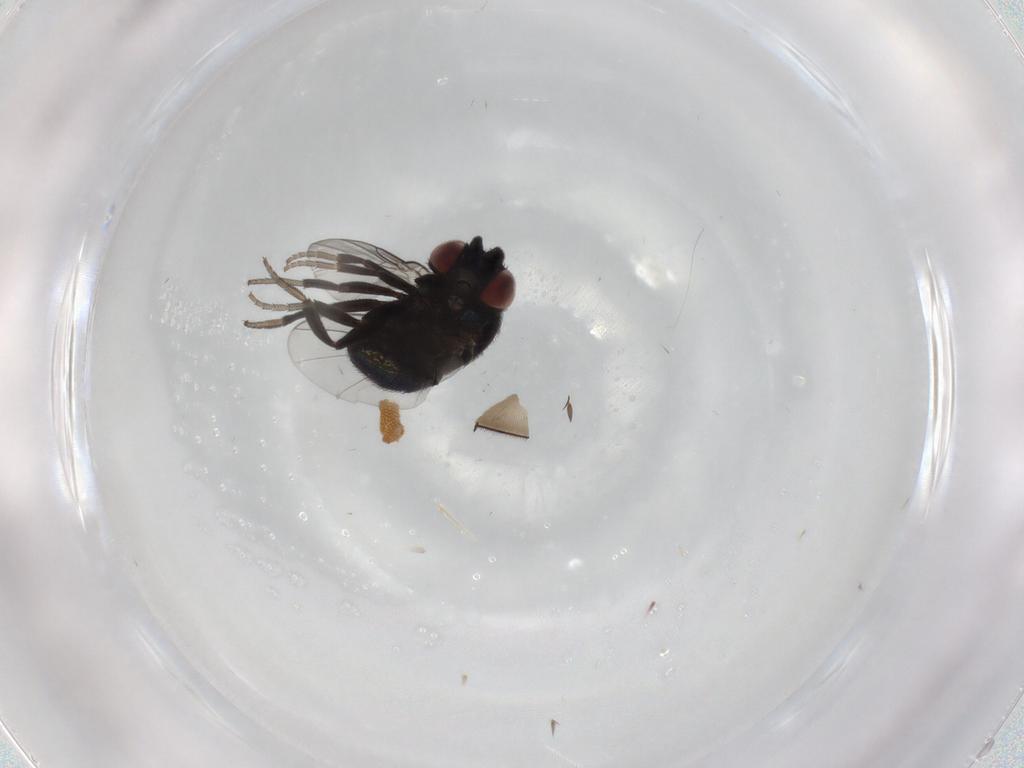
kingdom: Animalia
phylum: Arthropoda
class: Insecta
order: Diptera
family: Cryptochetidae
